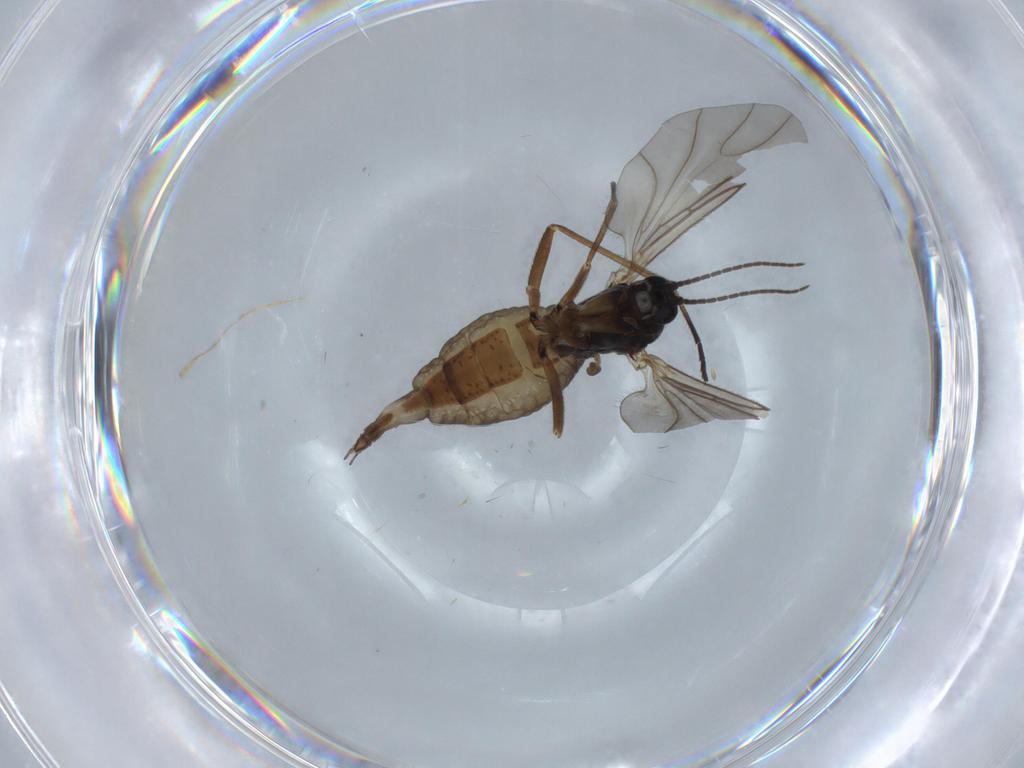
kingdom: Animalia
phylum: Arthropoda
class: Insecta
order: Diptera
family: Sciaridae
